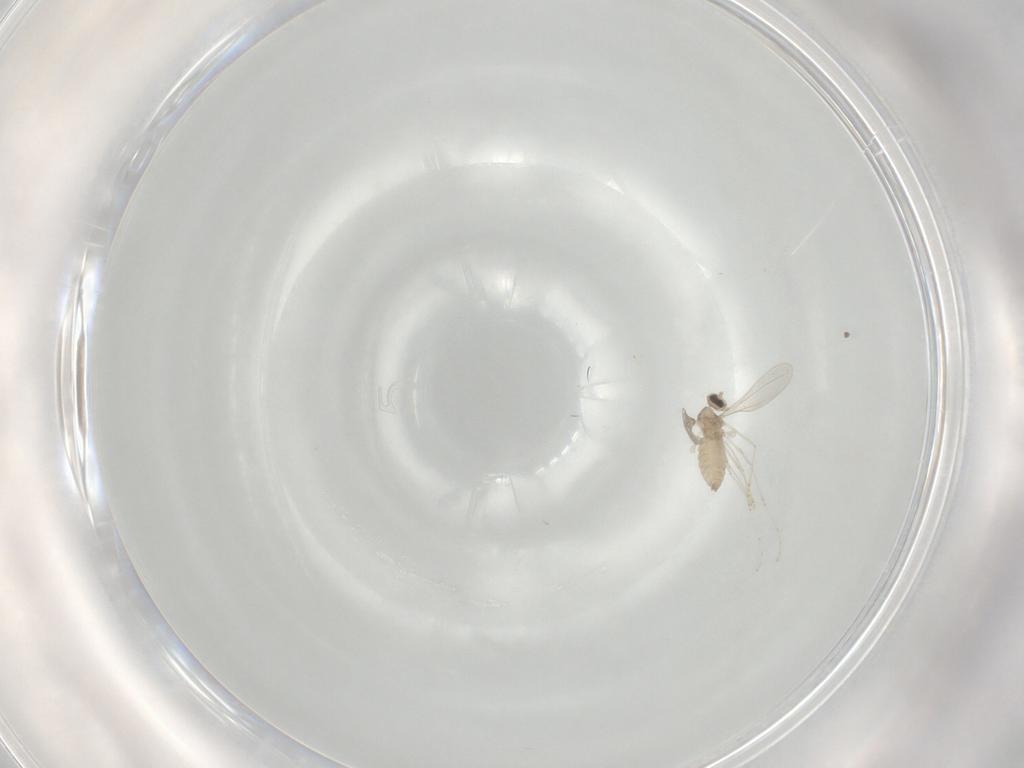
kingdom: Animalia
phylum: Arthropoda
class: Insecta
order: Diptera
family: Cecidomyiidae
